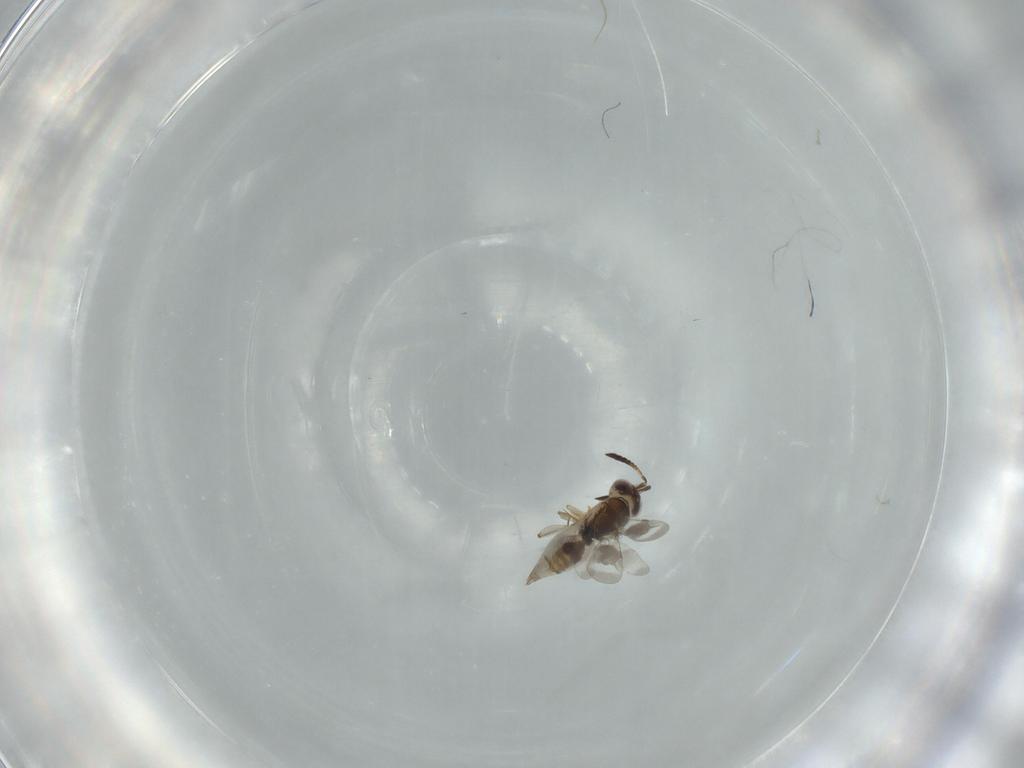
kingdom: Animalia
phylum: Arthropoda
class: Insecta
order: Hymenoptera
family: Ceraphronidae
